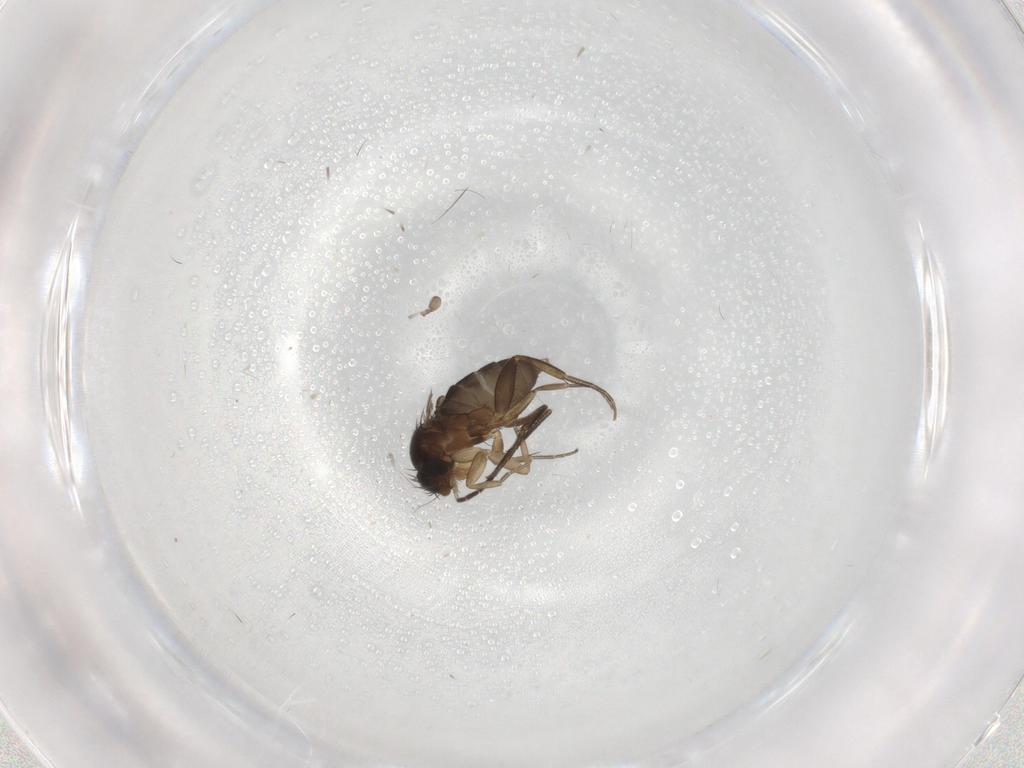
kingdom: Animalia
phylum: Arthropoda
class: Insecta
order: Diptera
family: Phoridae
